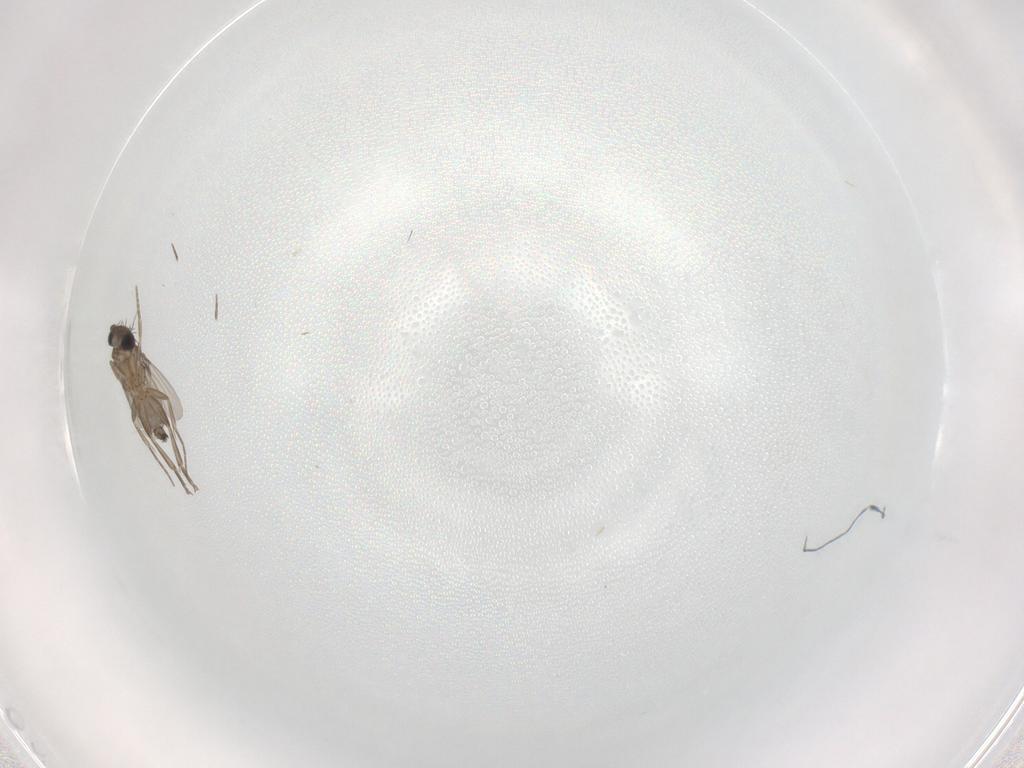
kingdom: Animalia
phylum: Arthropoda
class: Insecta
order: Diptera
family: Phoridae
